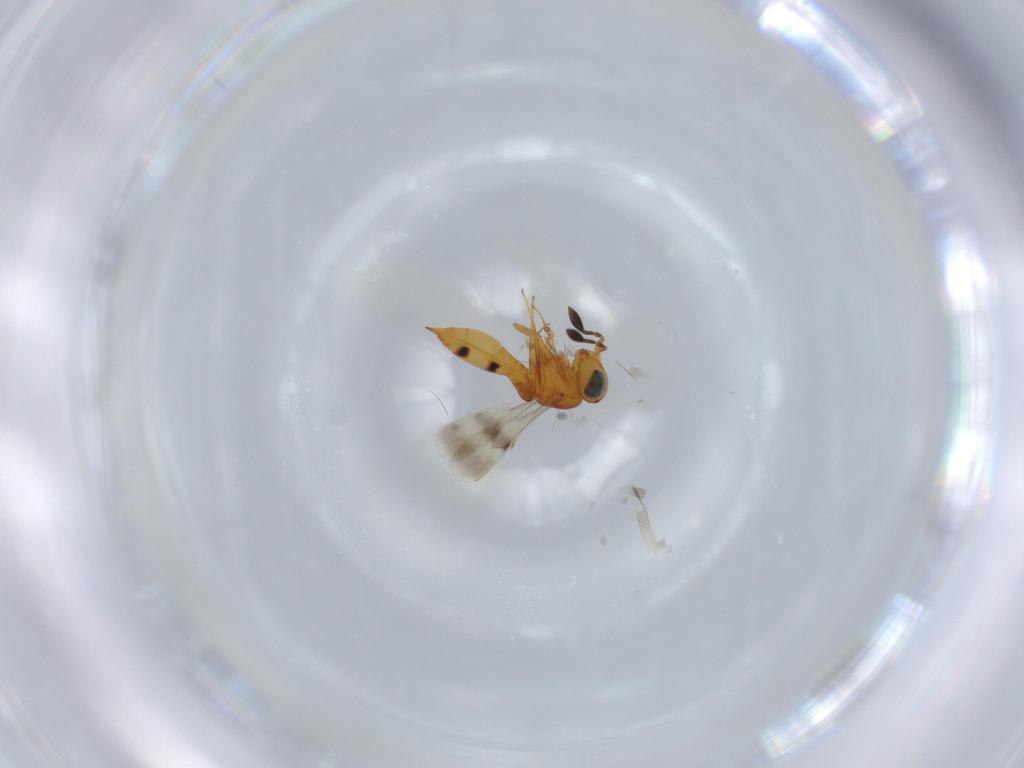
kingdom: Animalia
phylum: Arthropoda
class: Insecta
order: Hymenoptera
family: Scelionidae
